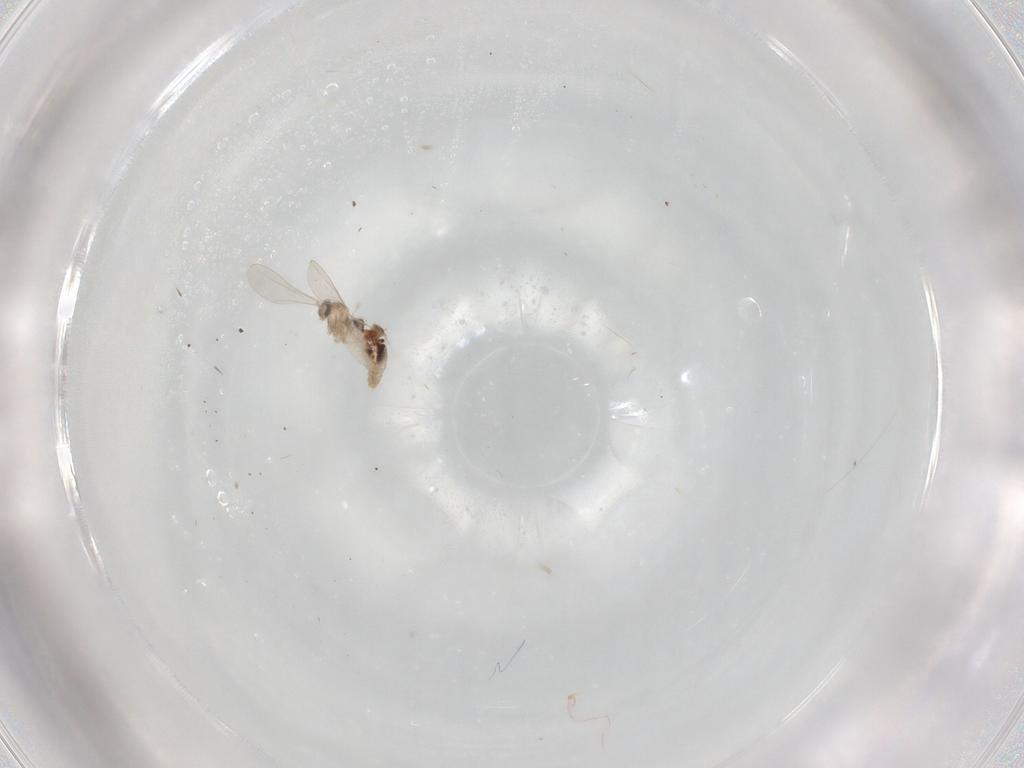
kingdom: Animalia
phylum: Arthropoda
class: Insecta
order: Diptera
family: Cecidomyiidae
